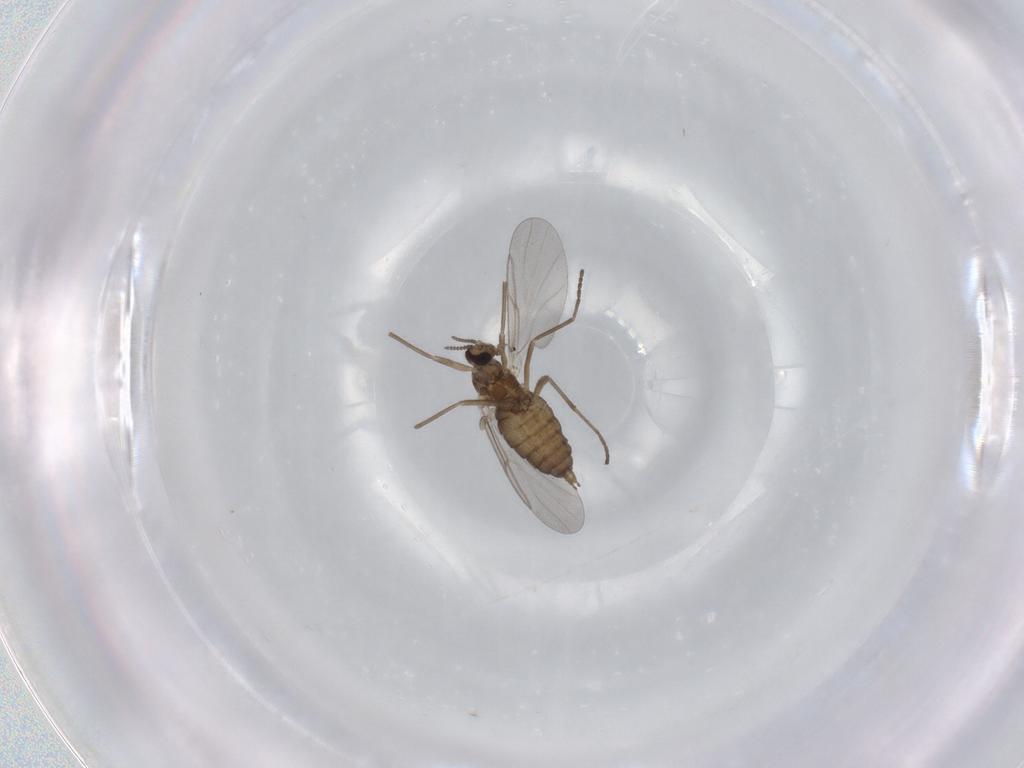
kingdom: Animalia
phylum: Arthropoda
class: Insecta
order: Diptera
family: Cecidomyiidae
